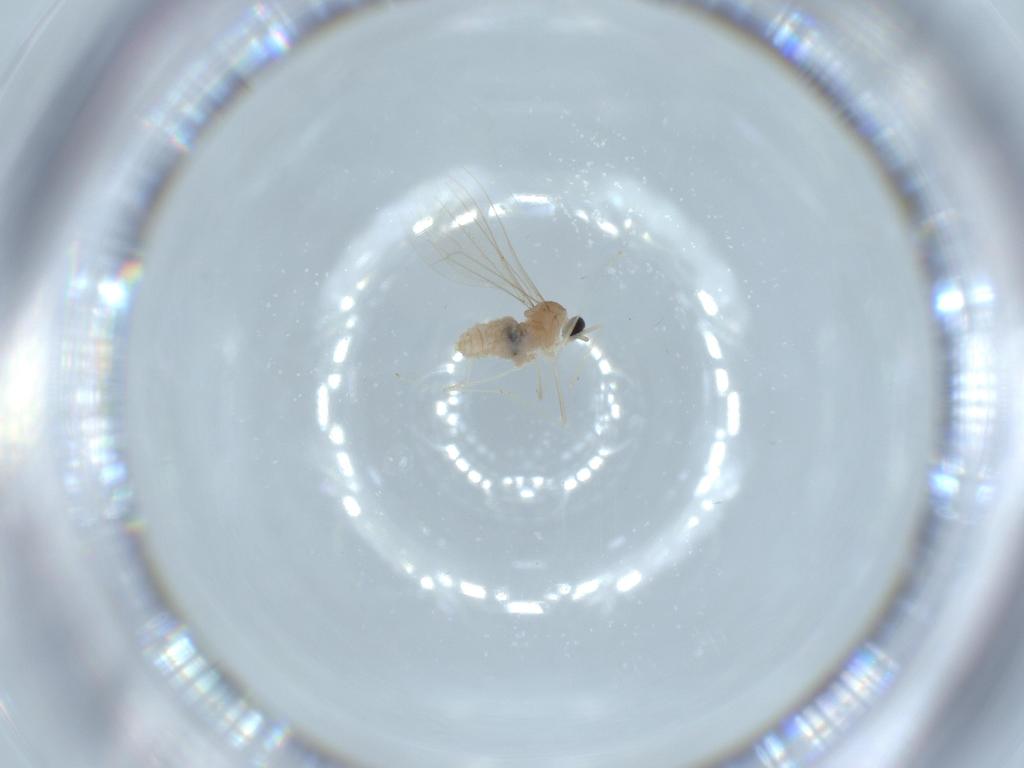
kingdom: Animalia
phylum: Arthropoda
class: Insecta
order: Diptera
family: Cecidomyiidae
